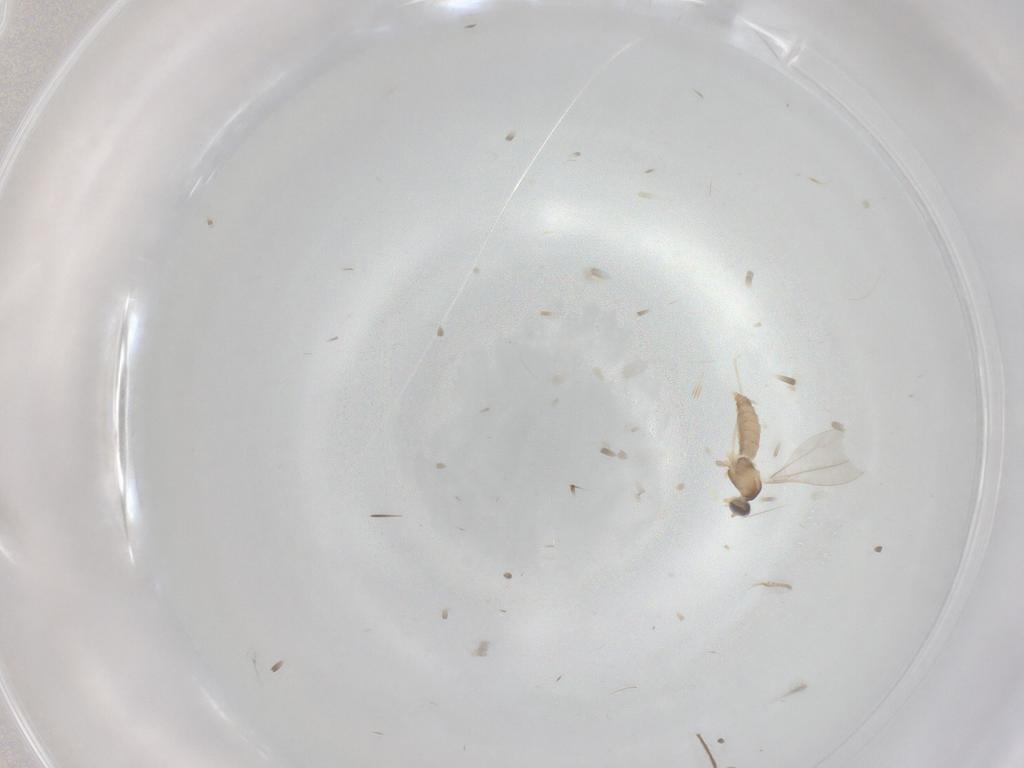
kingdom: Animalia
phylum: Arthropoda
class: Insecta
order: Diptera
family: Cecidomyiidae
